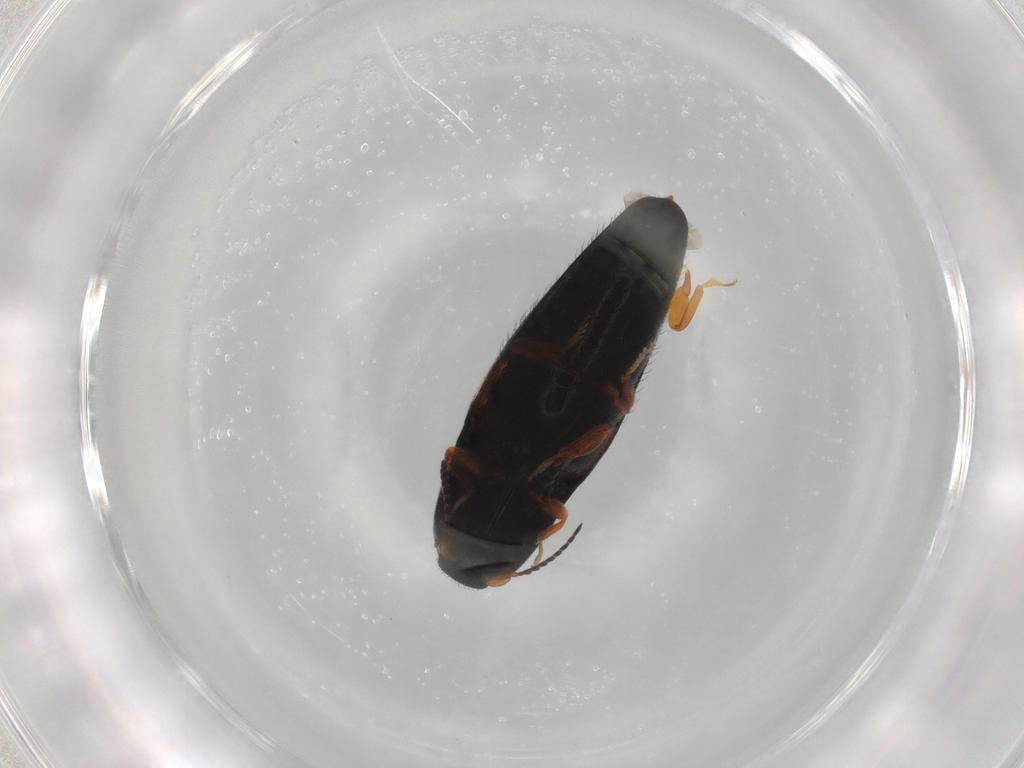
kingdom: Animalia
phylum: Arthropoda
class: Insecta
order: Coleoptera
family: Elateridae
